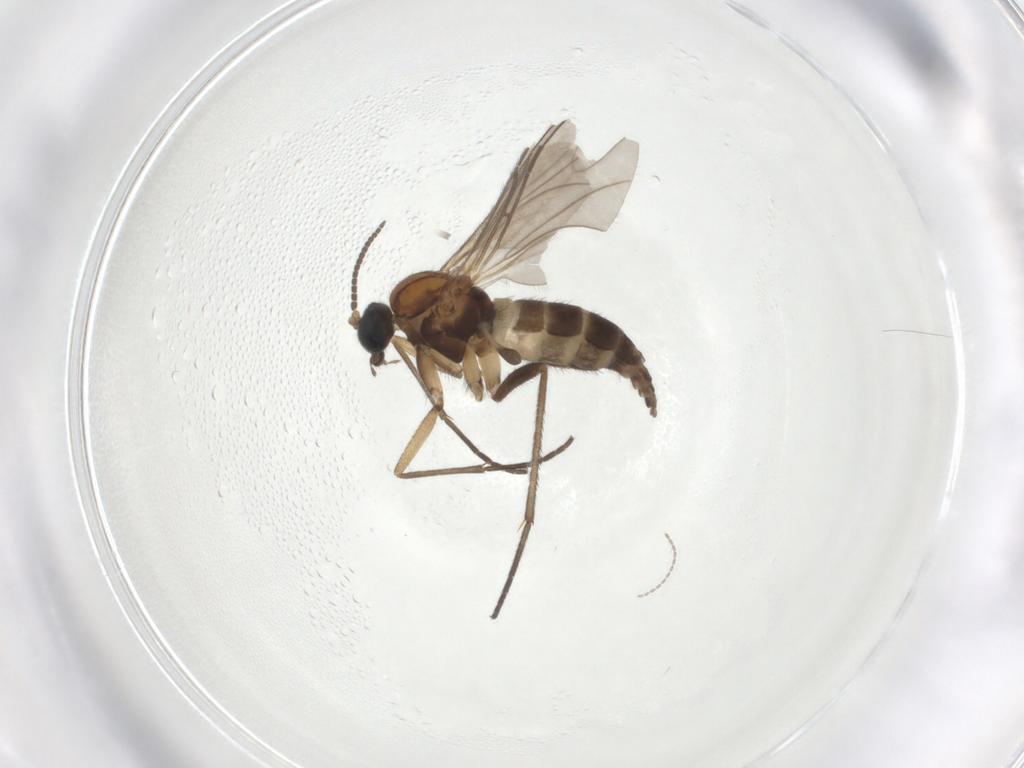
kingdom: Animalia
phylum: Arthropoda
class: Insecta
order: Diptera
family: Sciaridae
